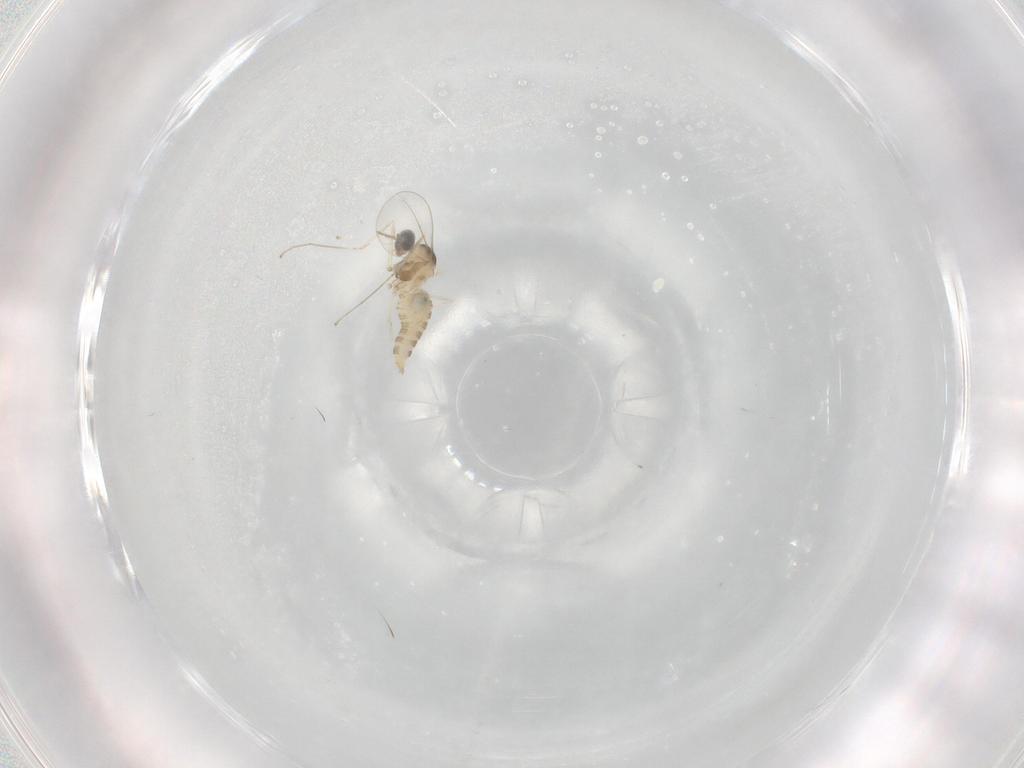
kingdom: Animalia
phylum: Arthropoda
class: Insecta
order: Diptera
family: Cecidomyiidae
